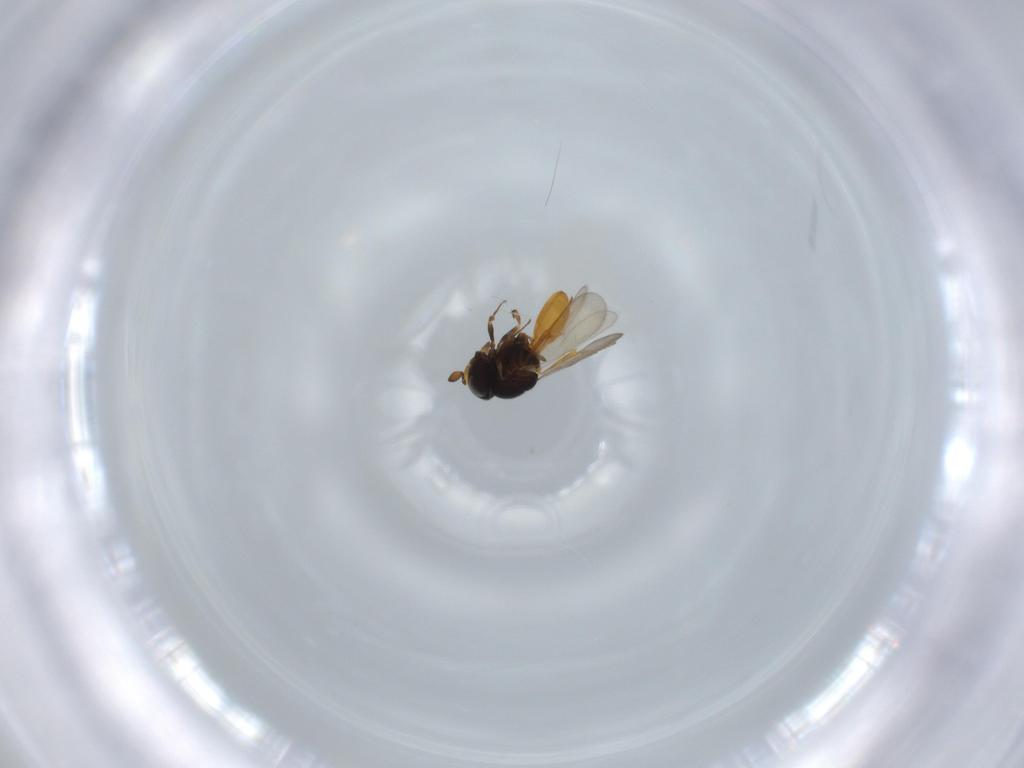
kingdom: Animalia
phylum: Arthropoda
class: Insecta
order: Hymenoptera
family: Scelionidae
